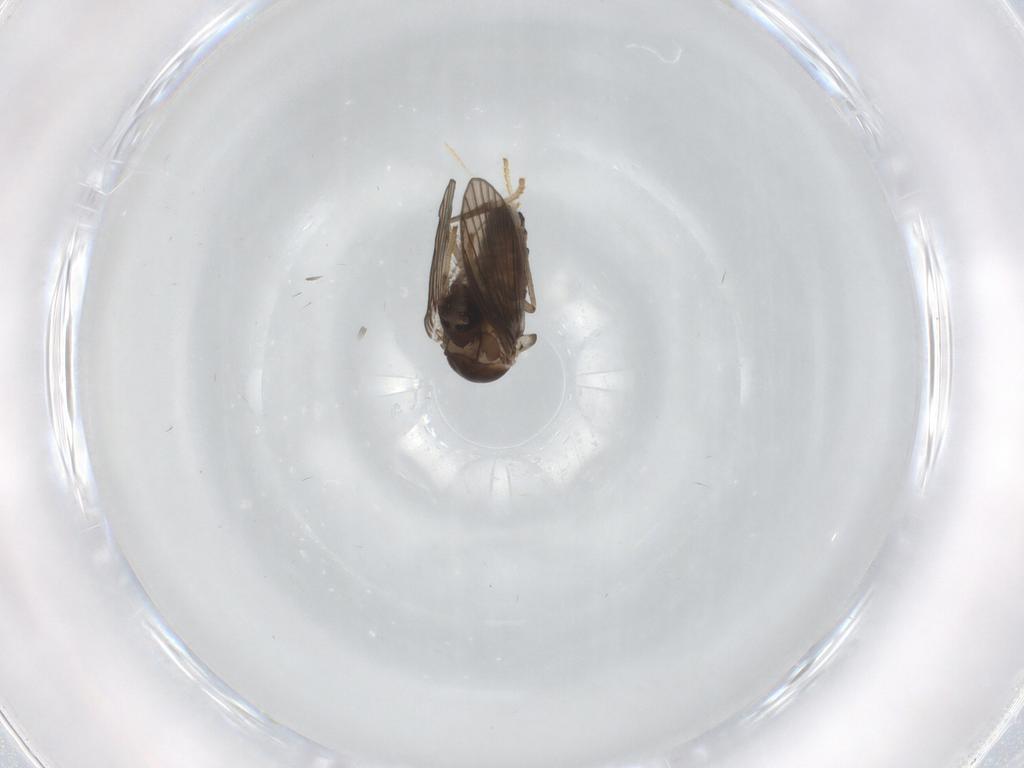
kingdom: Animalia
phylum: Arthropoda
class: Insecta
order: Diptera
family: Psychodidae
